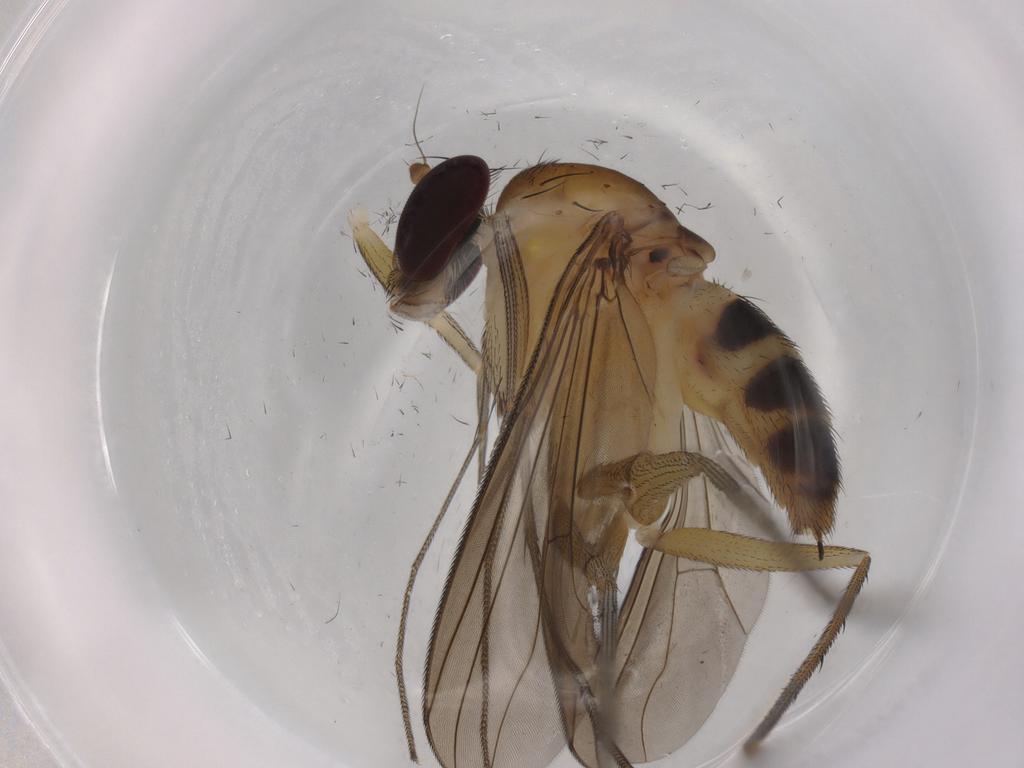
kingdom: Animalia
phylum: Arthropoda
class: Insecta
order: Diptera
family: Dolichopodidae
